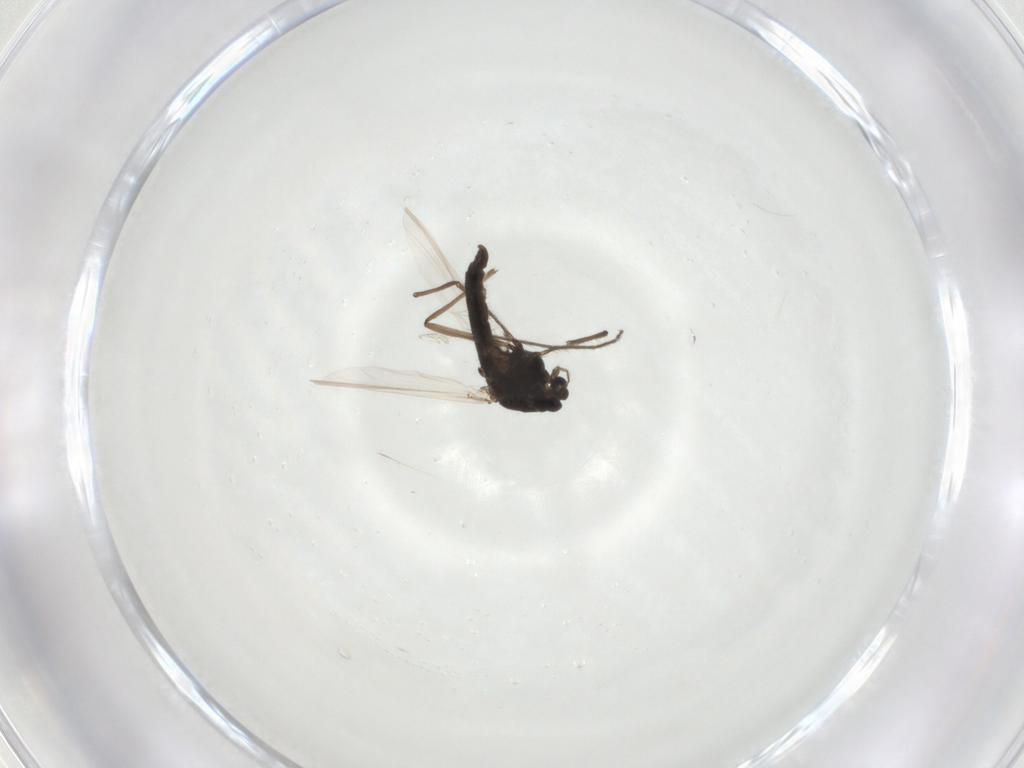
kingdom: Animalia
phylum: Arthropoda
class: Insecta
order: Diptera
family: Chironomidae
